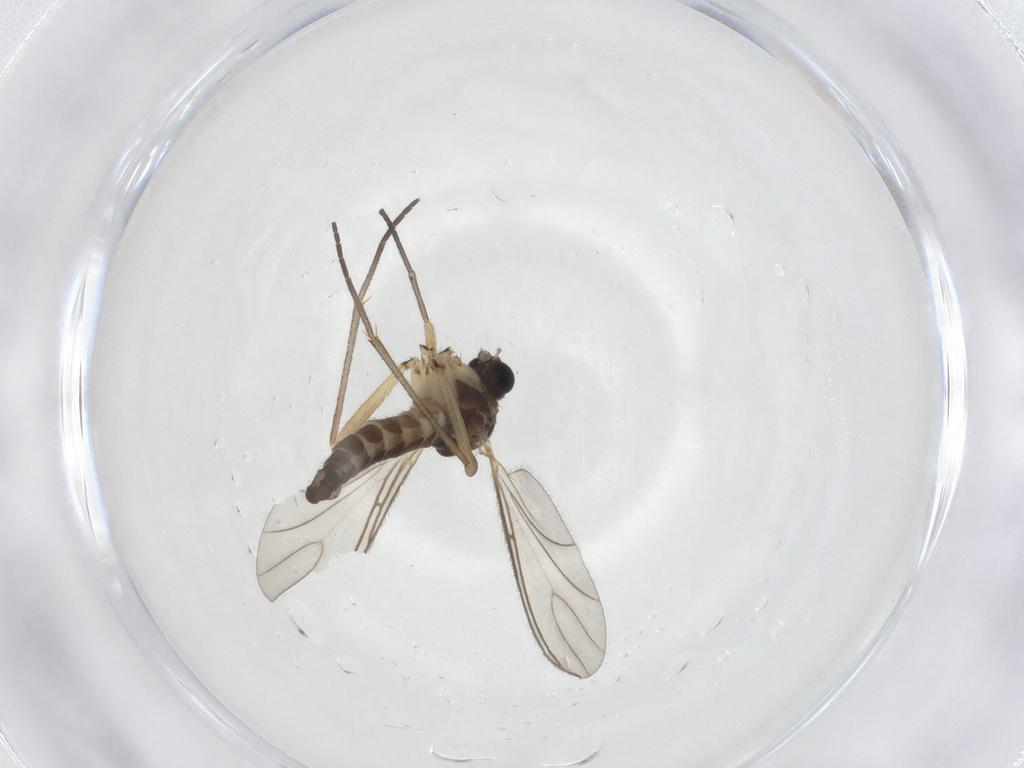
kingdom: Animalia
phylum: Arthropoda
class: Insecta
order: Diptera
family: Sciaridae
